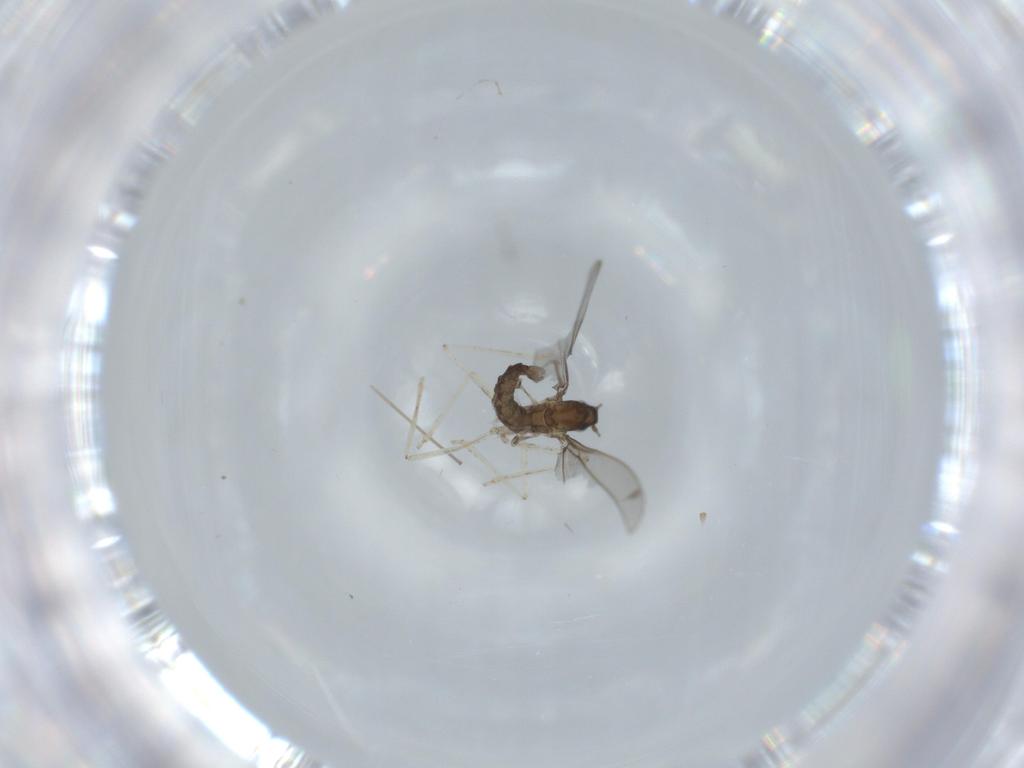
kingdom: Animalia
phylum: Arthropoda
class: Insecta
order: Diptera
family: Cecidomyiidae
